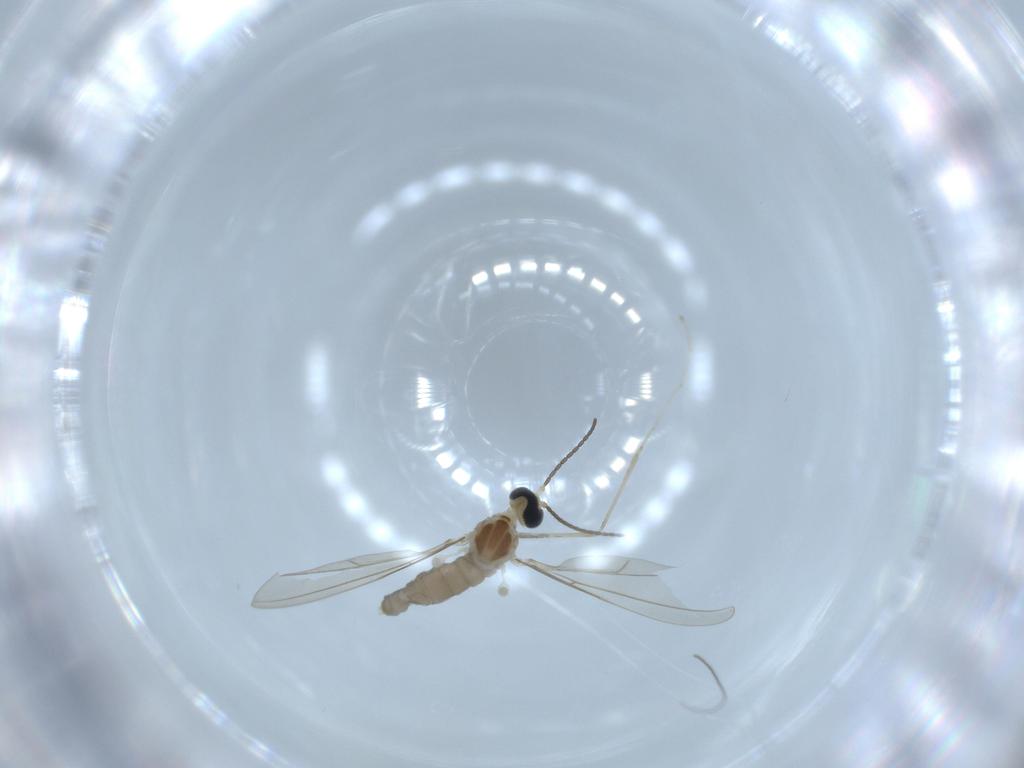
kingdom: Animalia
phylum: Arthropoda
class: Insecta
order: Diptera
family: Cecidomyiidae
